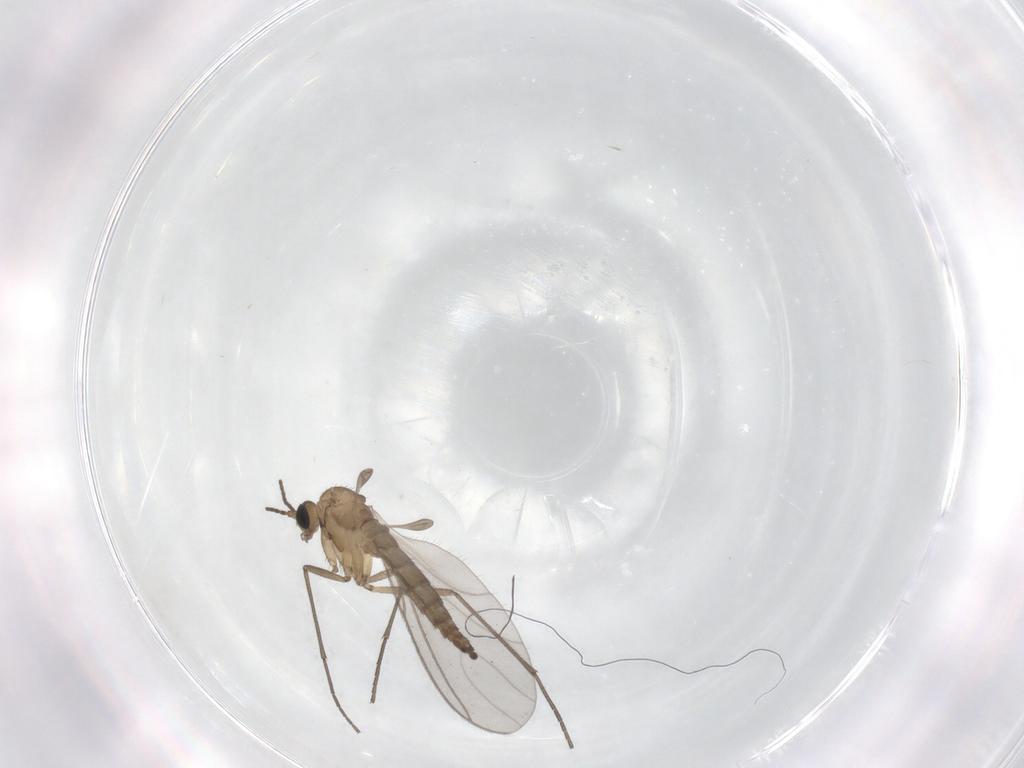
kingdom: Animalia
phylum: Arthropoda
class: Insecta
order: Diptera
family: Sciaridae
